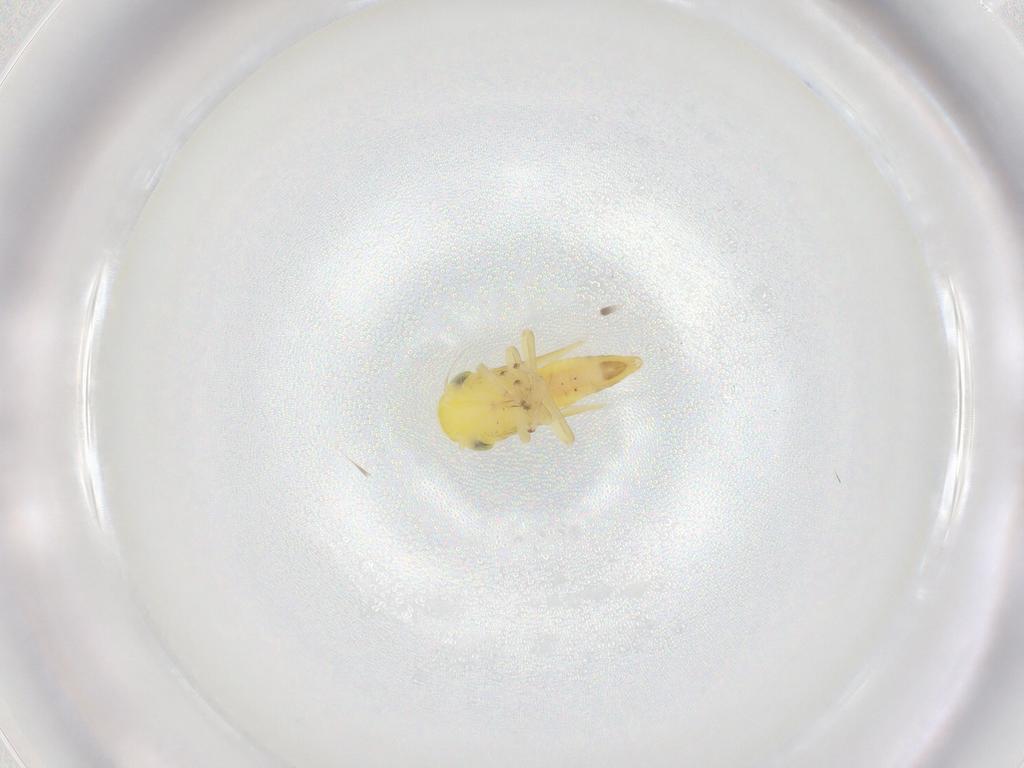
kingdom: Animalia
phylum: Arthropoda
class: Insecta
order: Hemiptera
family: Cicadellidae
